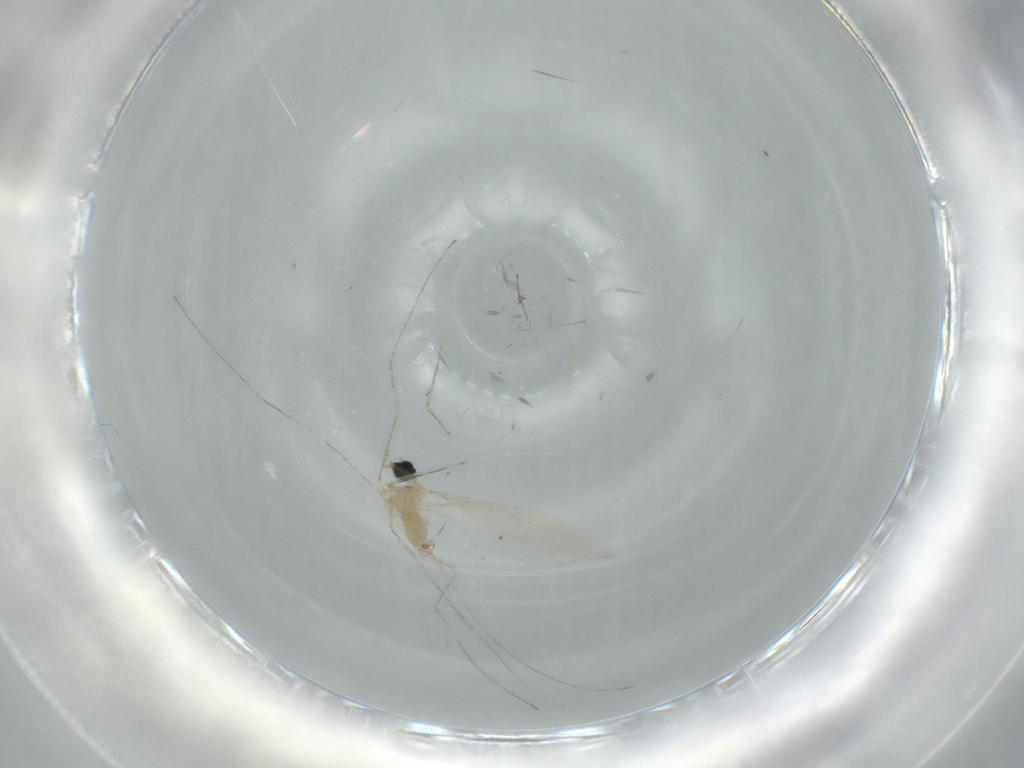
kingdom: Animalia
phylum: Arthropoda
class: Insecta
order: Diptera
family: Cecidomyiidae
